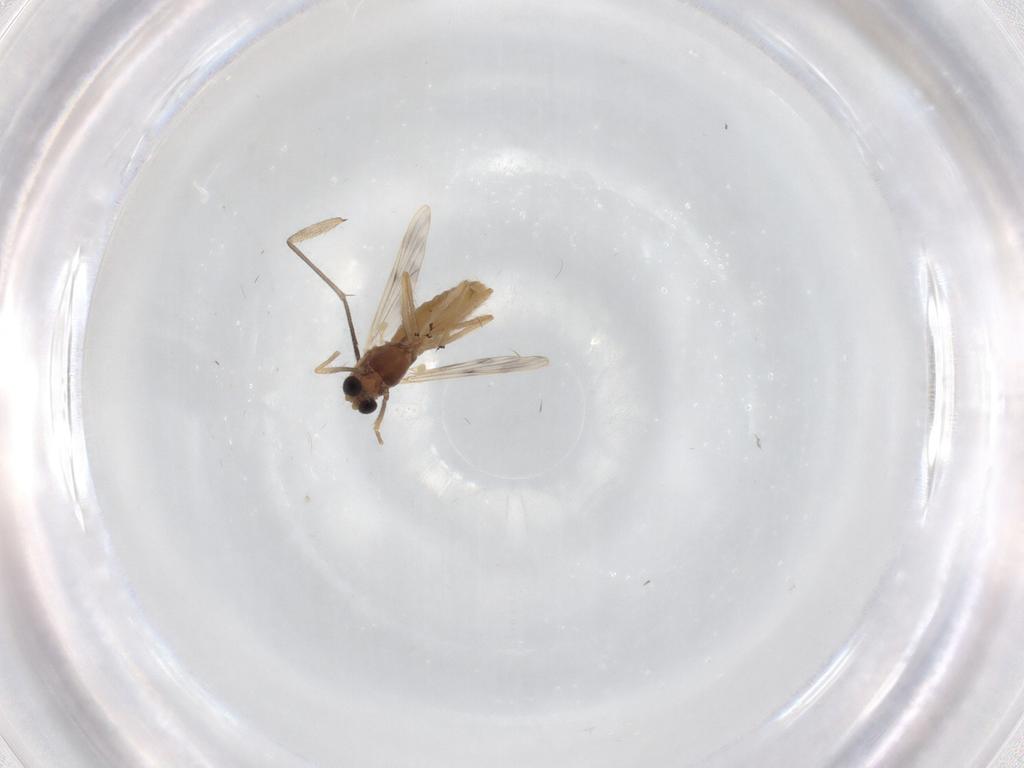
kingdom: Animalia
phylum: Arthropoda
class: Insecta
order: Diptera
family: Chironomidae
